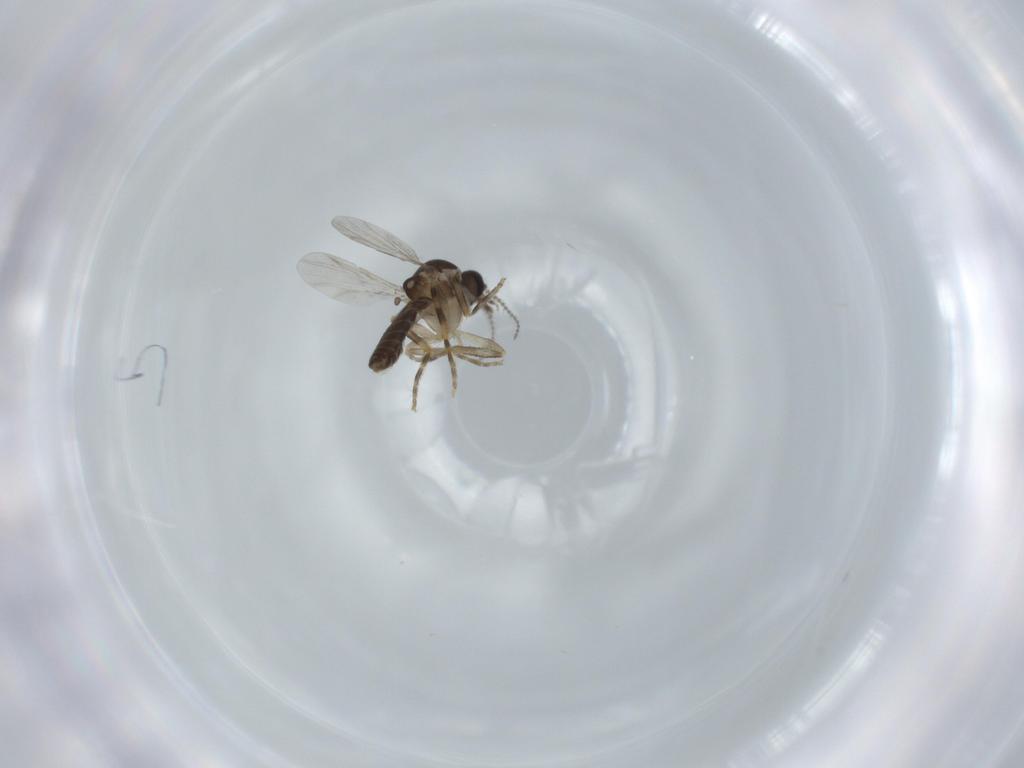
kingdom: Animalia
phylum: Arthropoda
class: Insecta
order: Diptera
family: Ceratopogonidae
